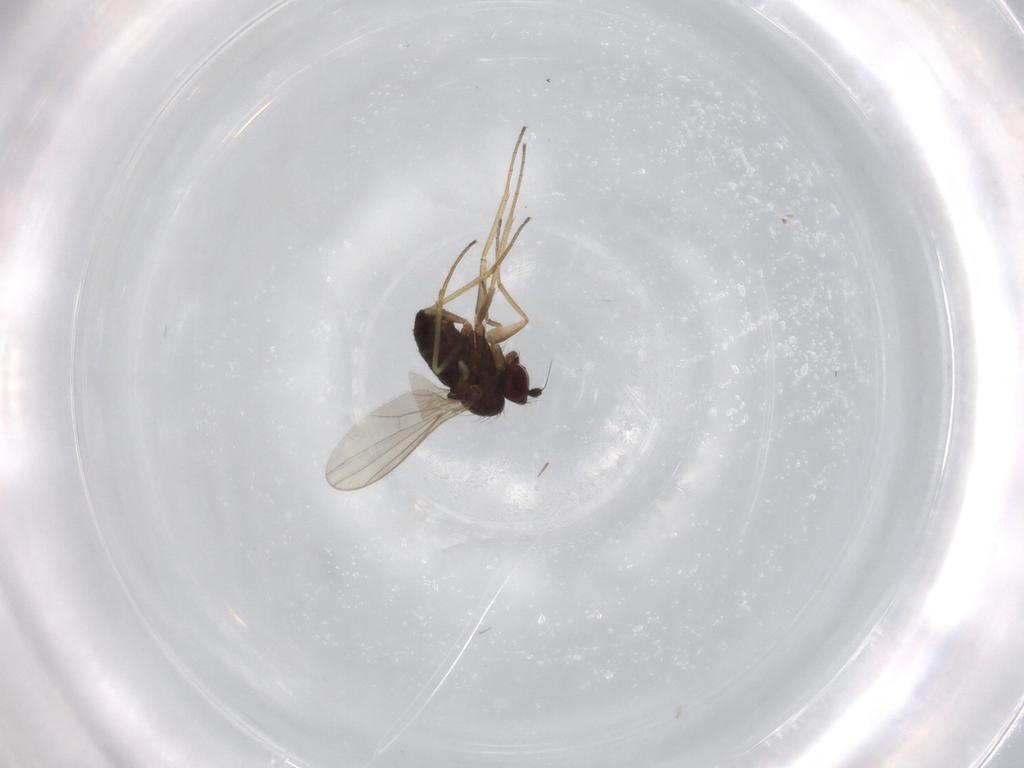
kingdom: Animalia
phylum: Arthropoda
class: Insecta
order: Diptera
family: Dolichopodidae
